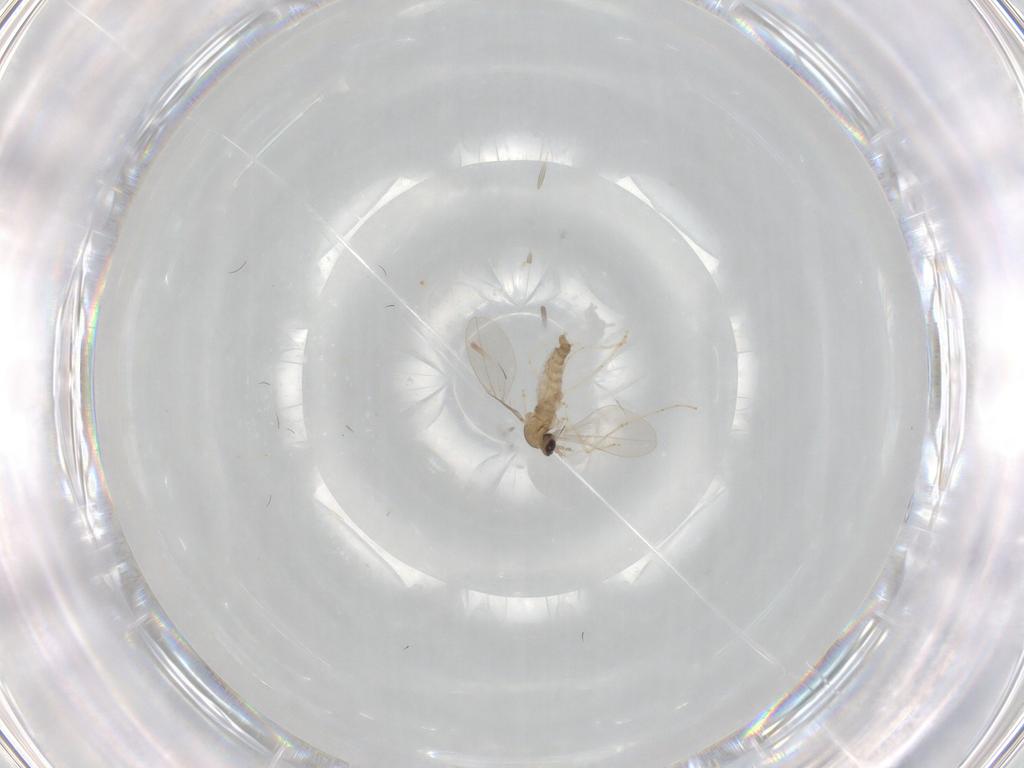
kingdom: Animalia
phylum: Arthropoda
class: Insecta
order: Diptera
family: Cecidomyiidae
